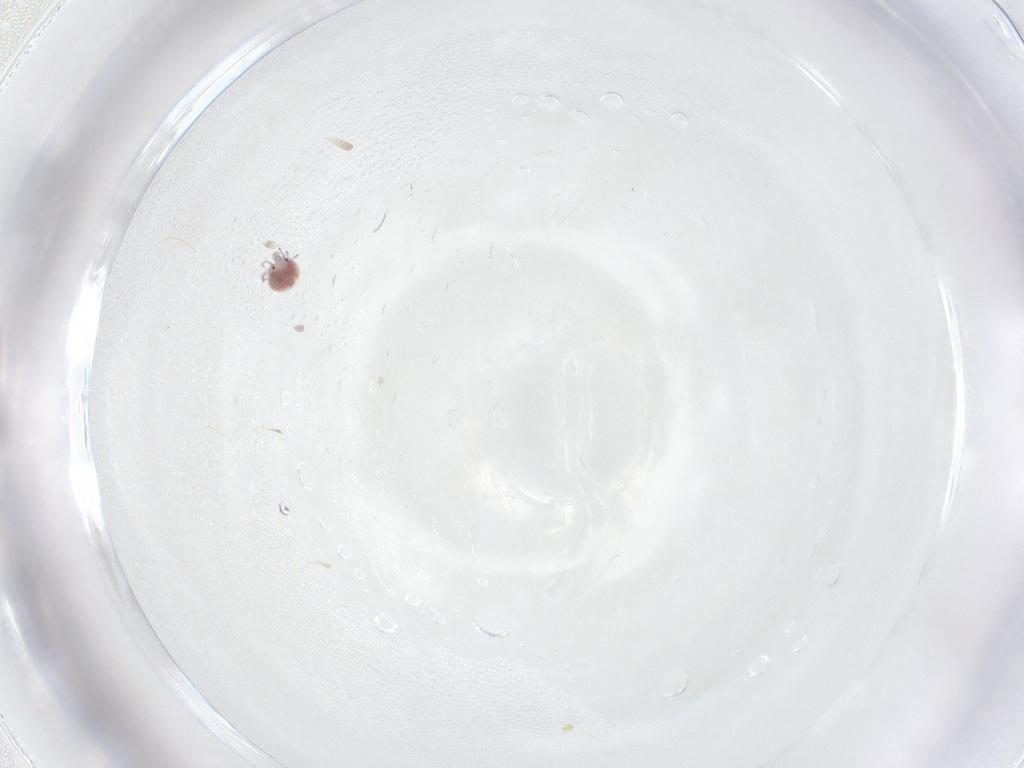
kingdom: Animalia
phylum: Arthropoda
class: Arachnida
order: Trombidiformes
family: Pionidae
